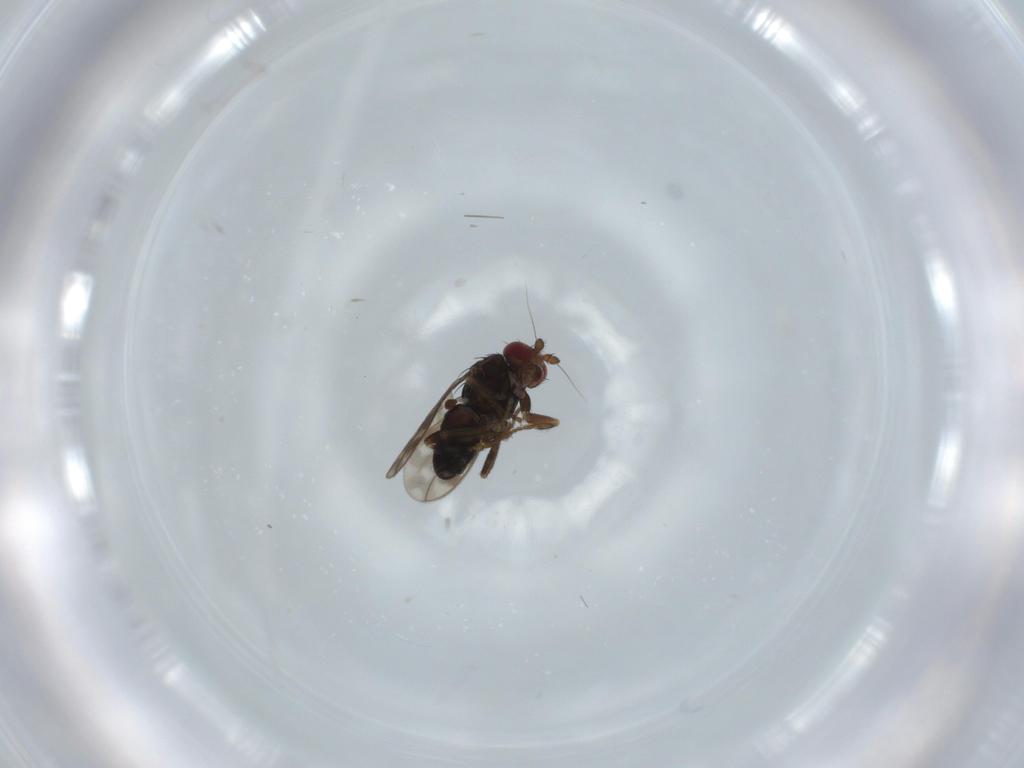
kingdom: Animalia
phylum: Arthropoda
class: Insecta
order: Diptera
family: Sphaeroceridae
